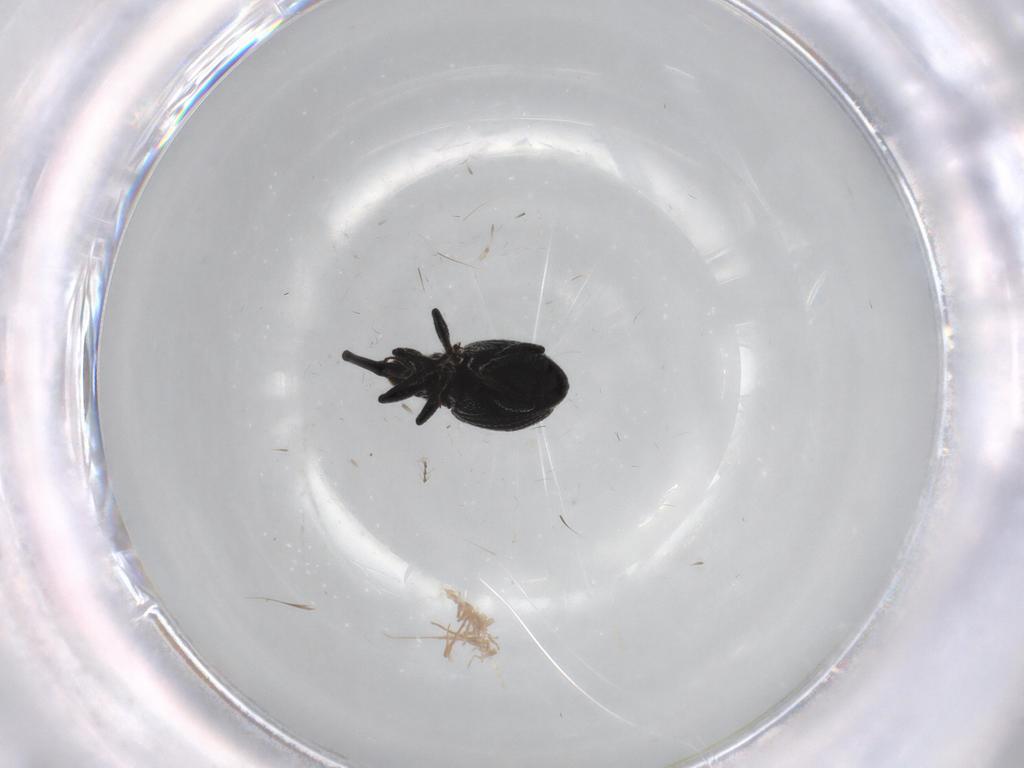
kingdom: Animalia
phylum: Arthropoda
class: Insecta
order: Coleoptera
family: Brentidae
